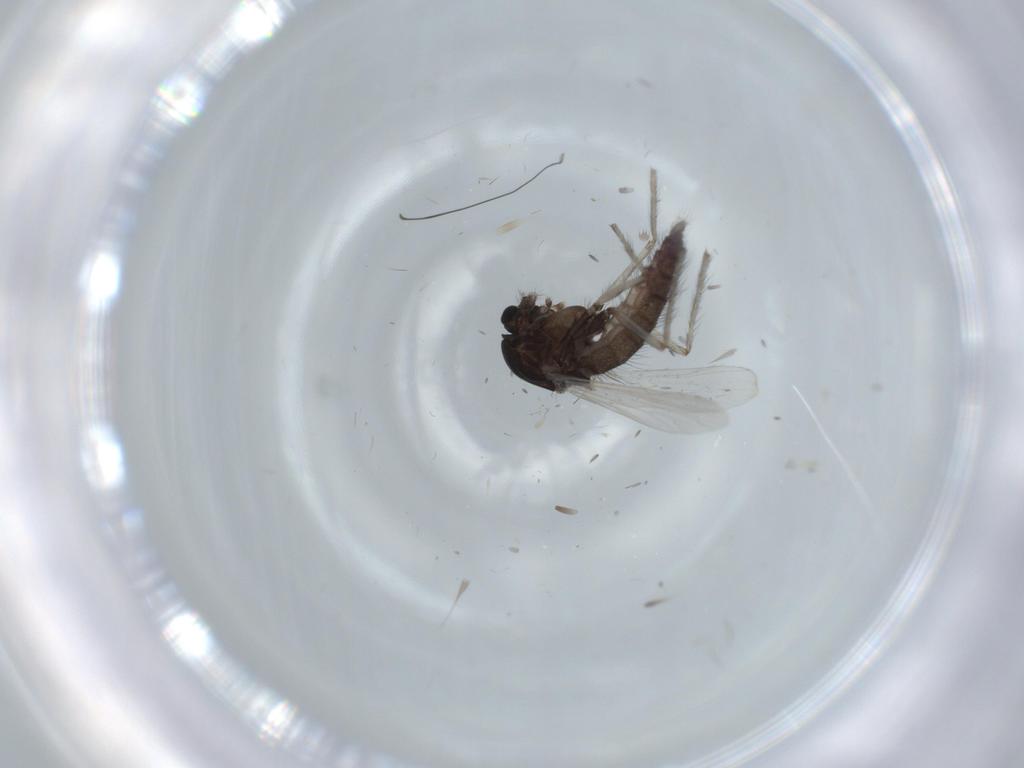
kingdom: Animalia
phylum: Arthropoda
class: Insecta
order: Diptera
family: Chironomidae
